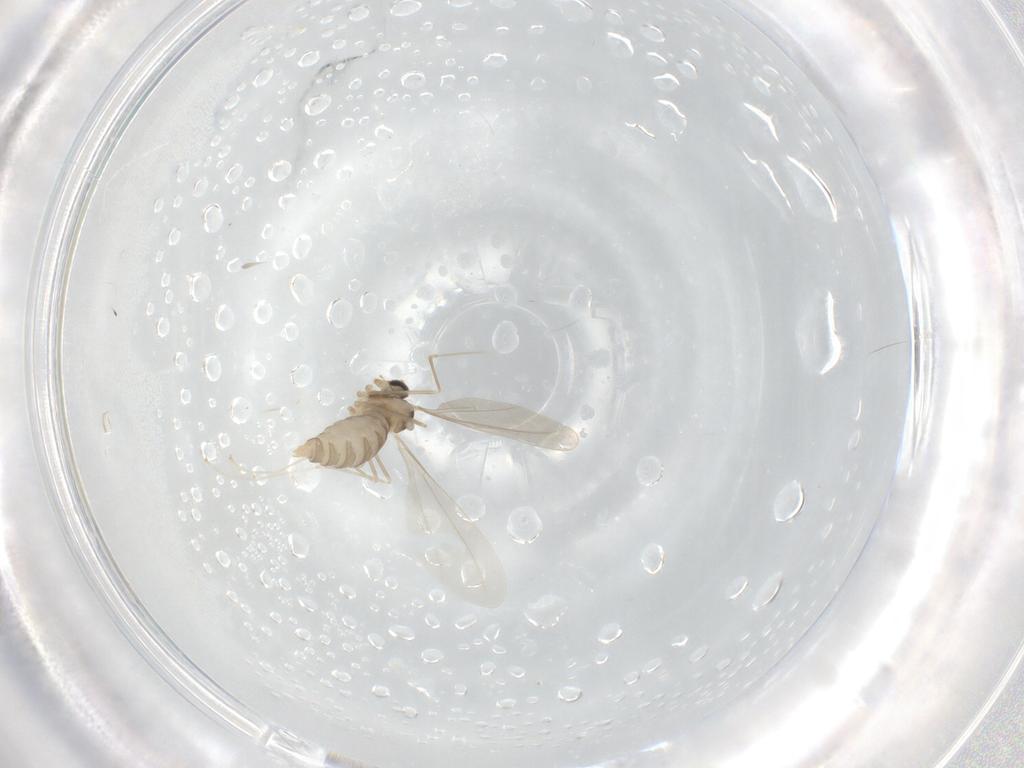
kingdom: Animalia
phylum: Arthropoda
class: Insecta
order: Diptera
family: Cecidomyiidae
